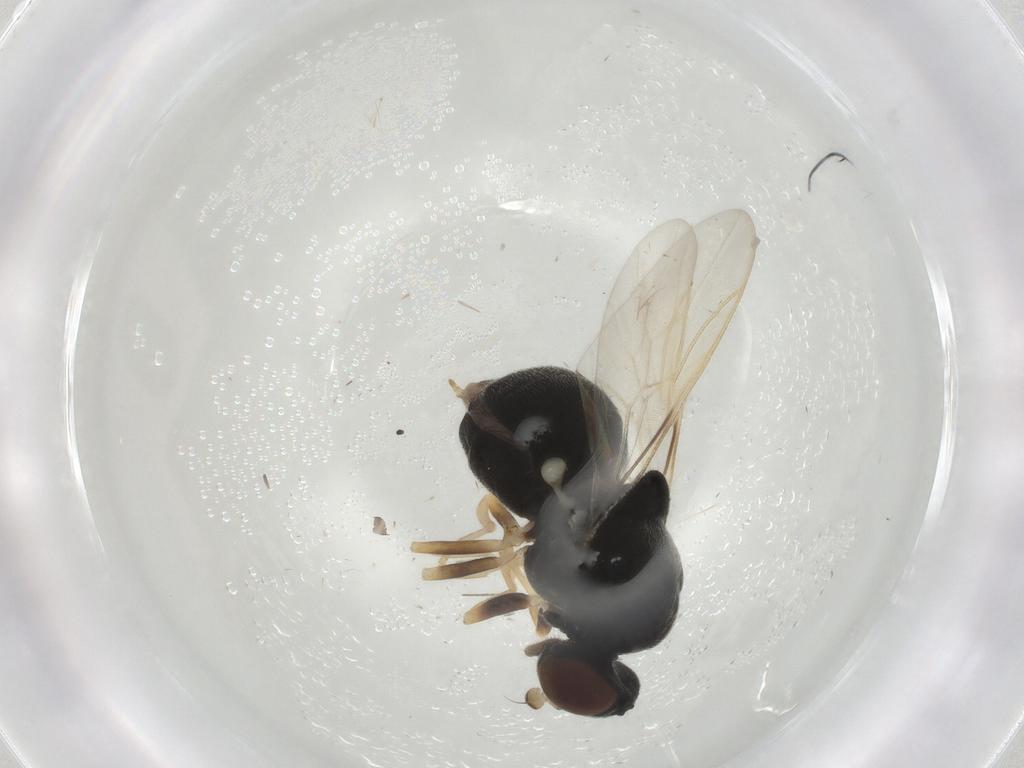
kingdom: Animalia
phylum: Arthropoda
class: Insecta
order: Diptera
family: Stratiomyidae
